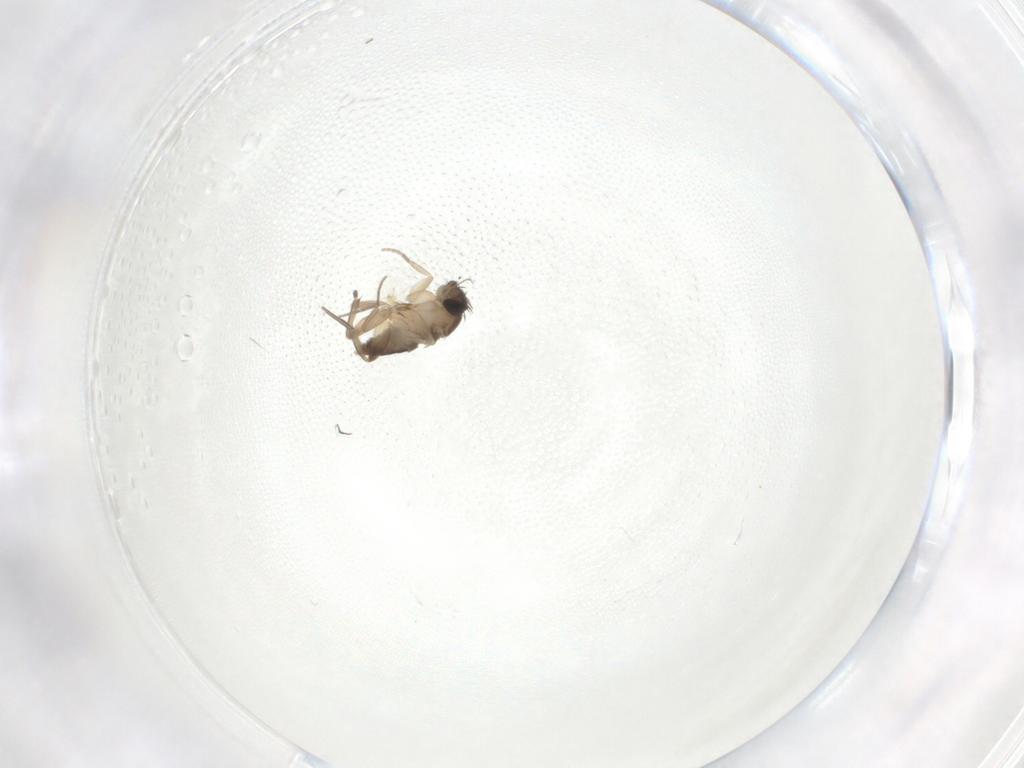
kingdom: Animalia
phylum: Arthropoda
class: Insecta
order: Diptera
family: Phoridae
